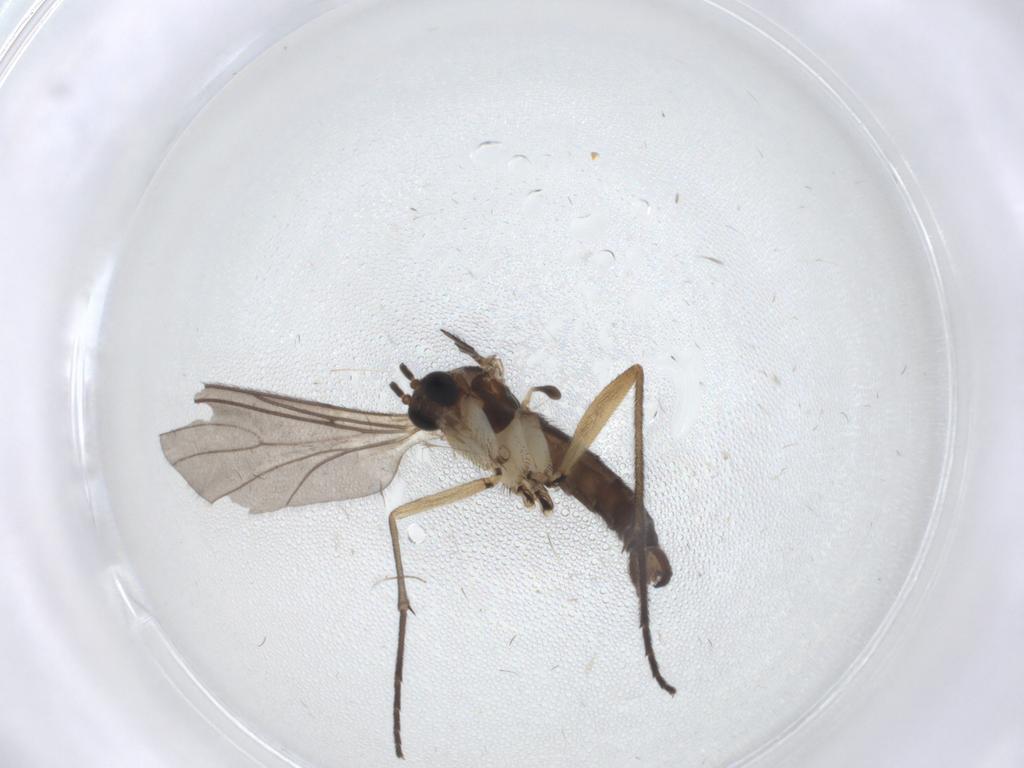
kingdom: Animalia
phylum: Arthropoda
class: Insecta
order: Diptera
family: Sciaridae
